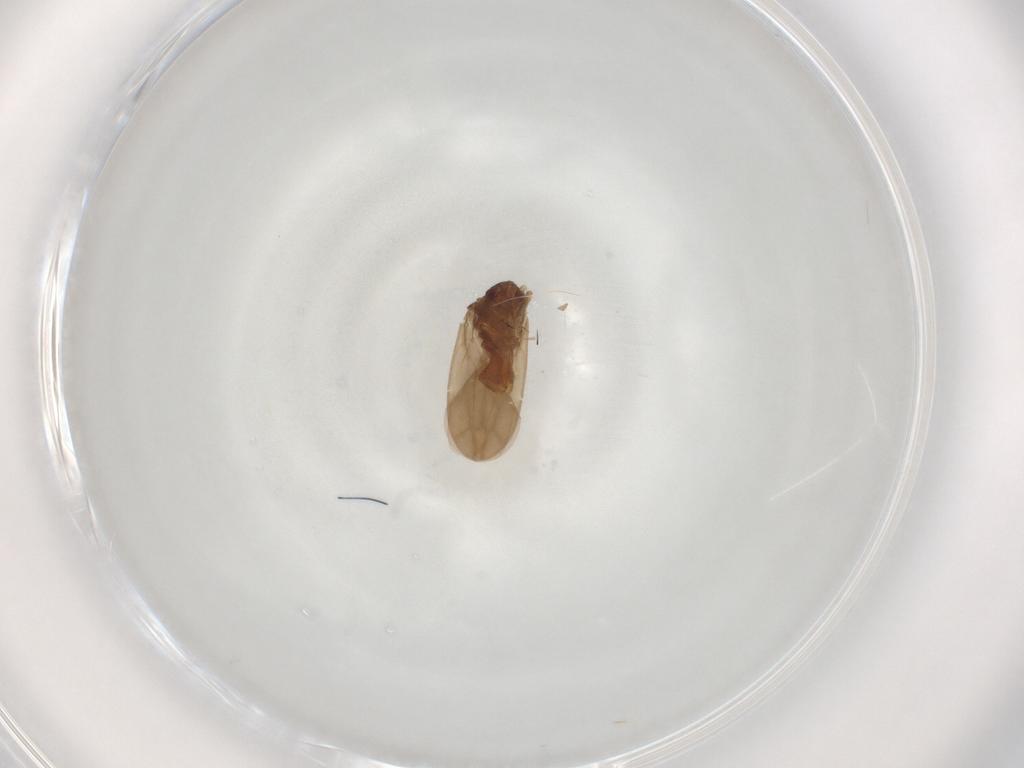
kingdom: Animalia
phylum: Arthropoda
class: Insecta
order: Hemiptera
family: Ceratocombidae
